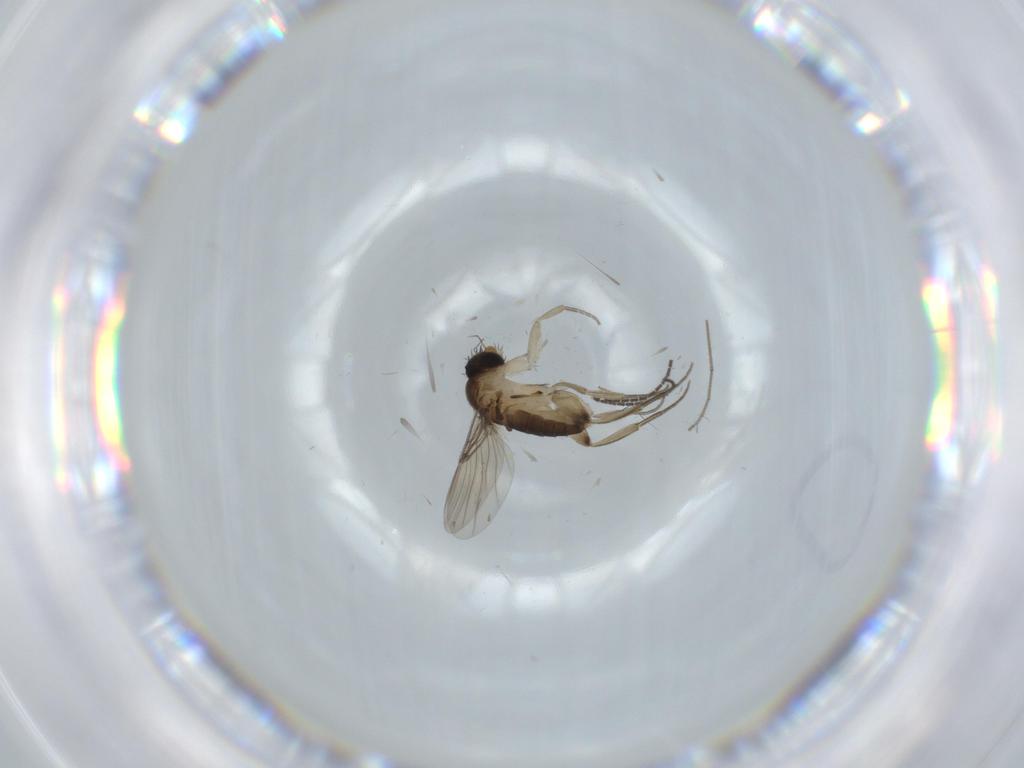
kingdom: Animalia
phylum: Arthropoda
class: Insecta
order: Diptera
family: Phoridae
